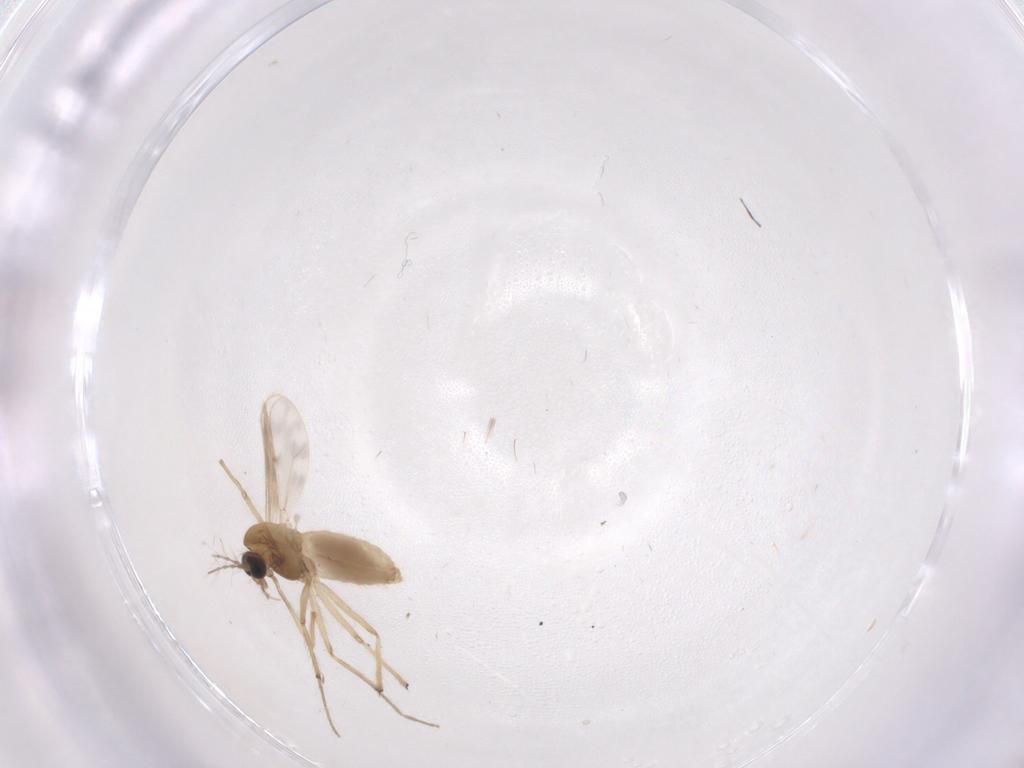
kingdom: Animalia
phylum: Arthropoda
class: Insecta
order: Diptera
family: Chironomidae
